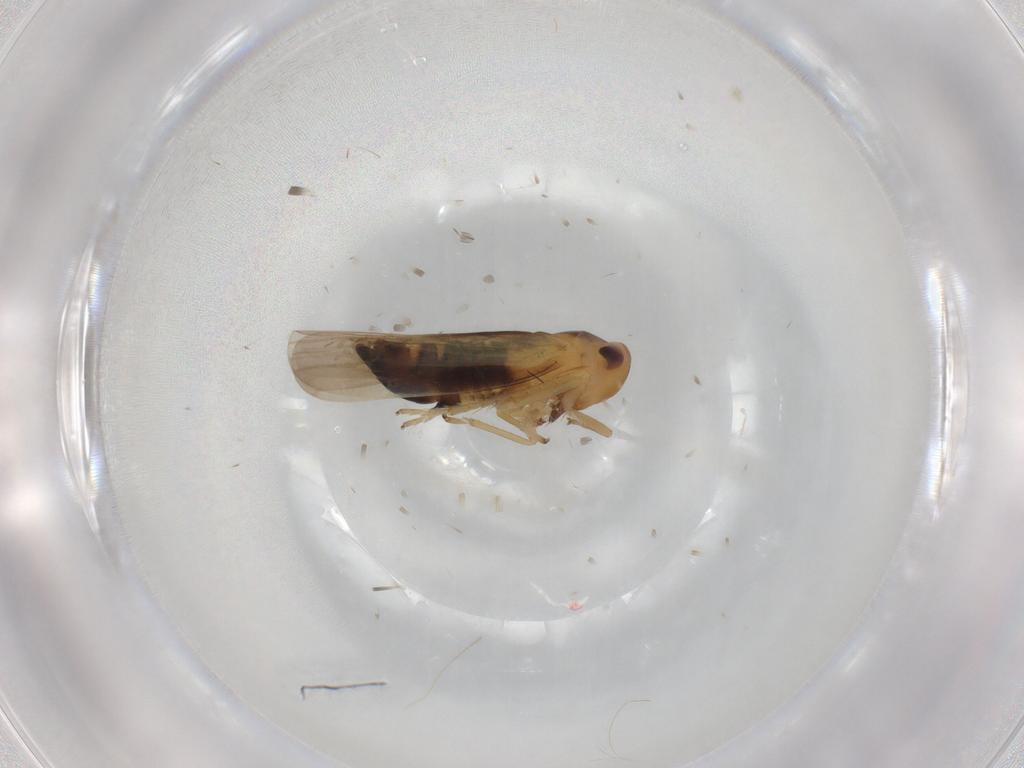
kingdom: Animalia
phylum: Arthropoda
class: Insecta
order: Hemiptera
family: Cicadellidae
